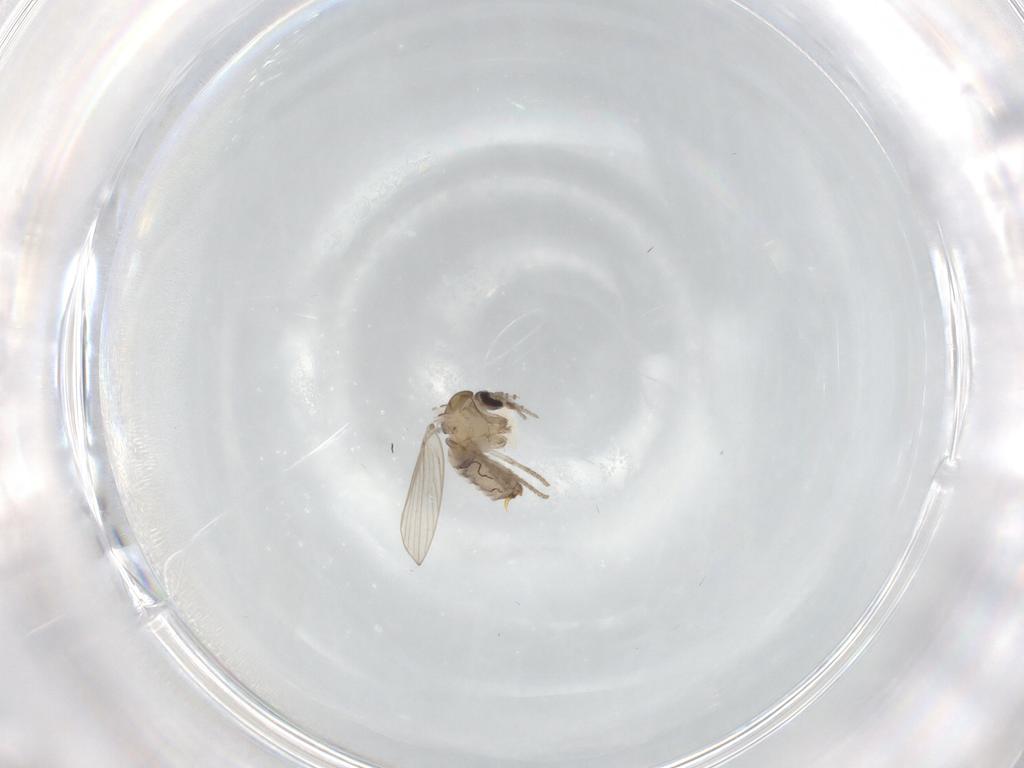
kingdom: Animalia
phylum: Arthropoda
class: Insecta
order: Diptera
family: Psychodidae
